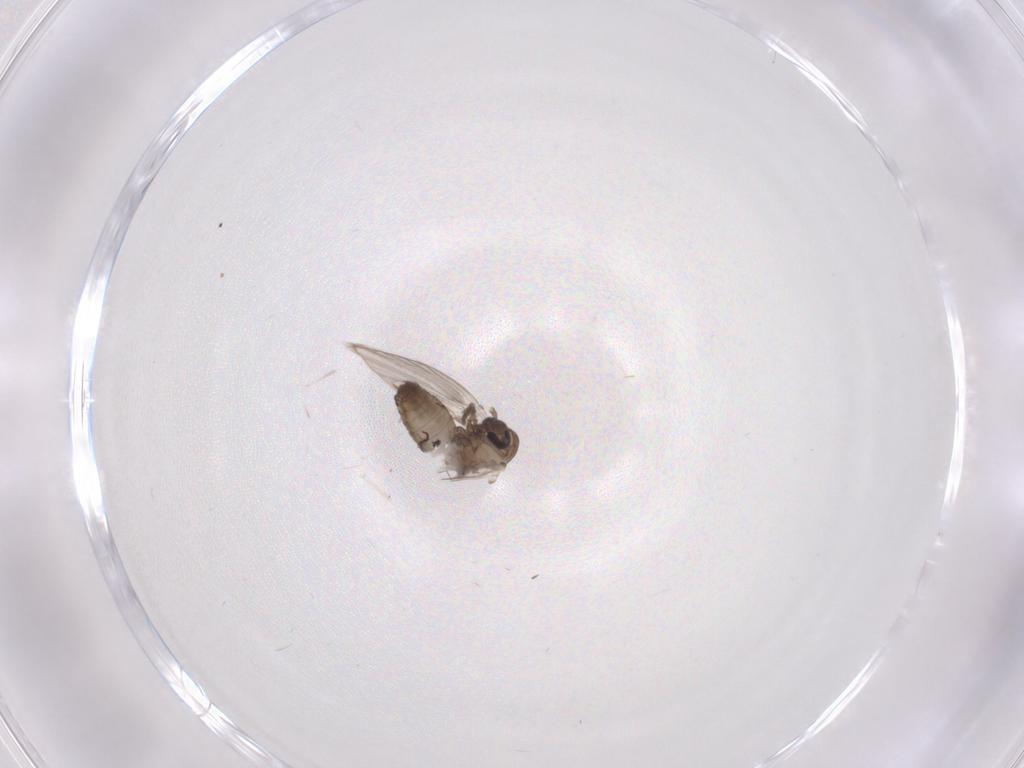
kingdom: Animalia
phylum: Arthropoda
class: Insecta
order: Diptera
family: Psychodidae
